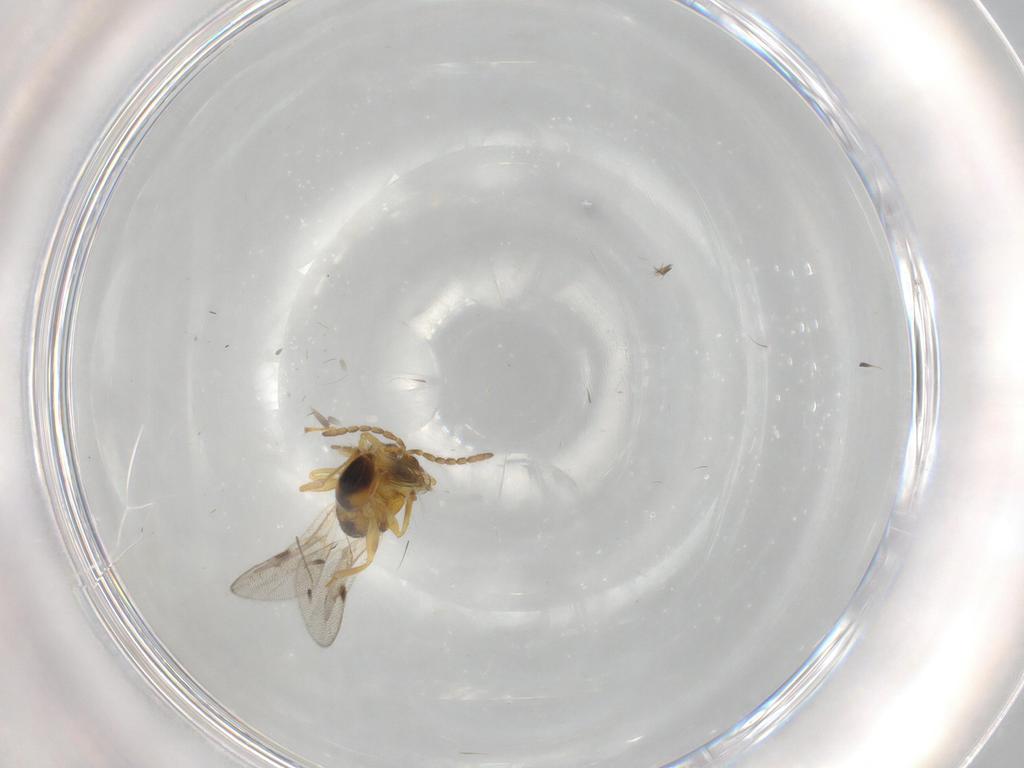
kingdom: Animalia
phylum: Arthropoda
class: Insecta
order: Hymenoptera
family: Eurytomidae
